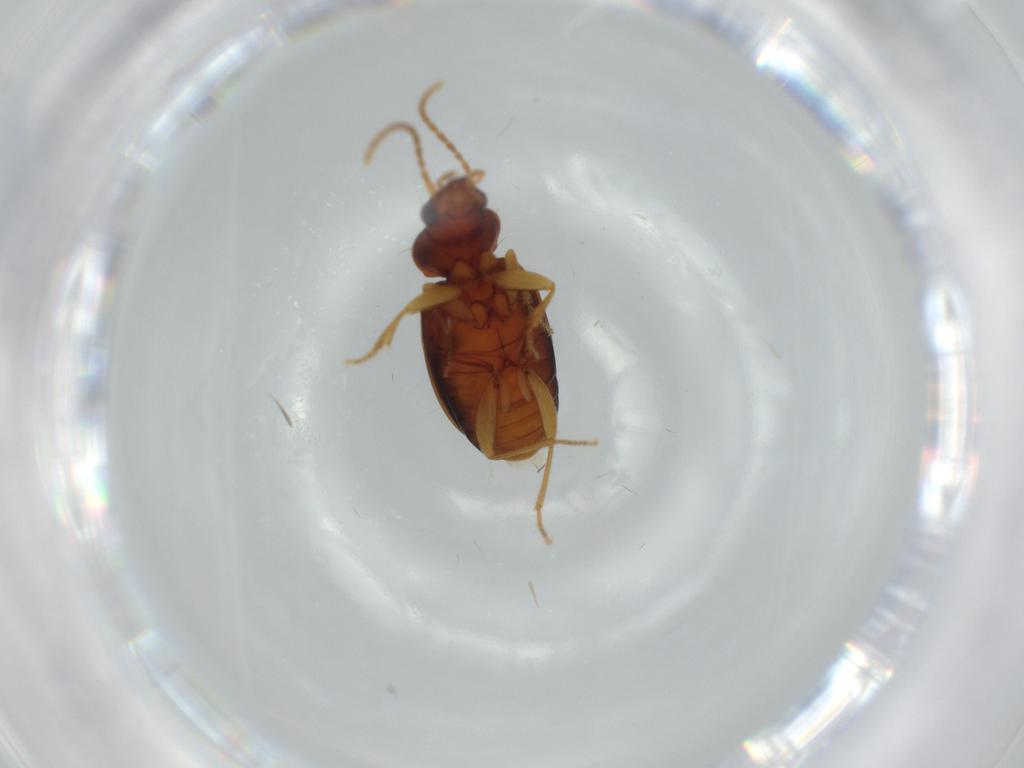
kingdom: Animalia
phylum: Arthropoda
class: Insecta
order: Coleoptera
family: Carabidae
